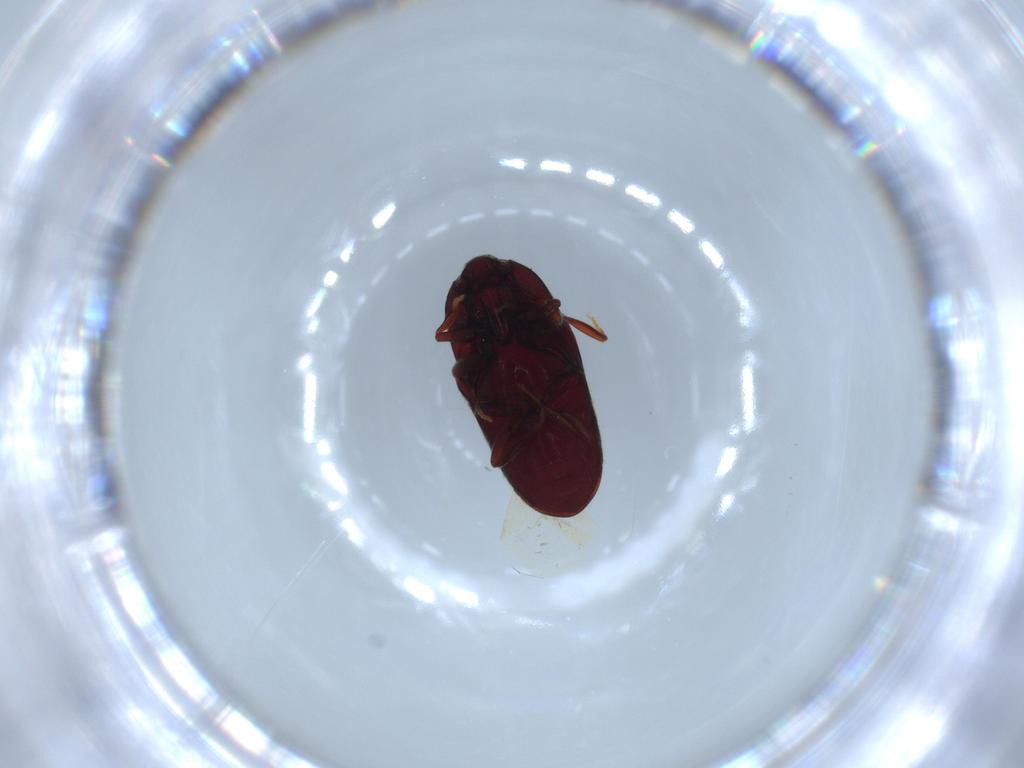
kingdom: Animalia
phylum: Arthropoda
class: Insecta
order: Coleoptera
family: Throscidae
